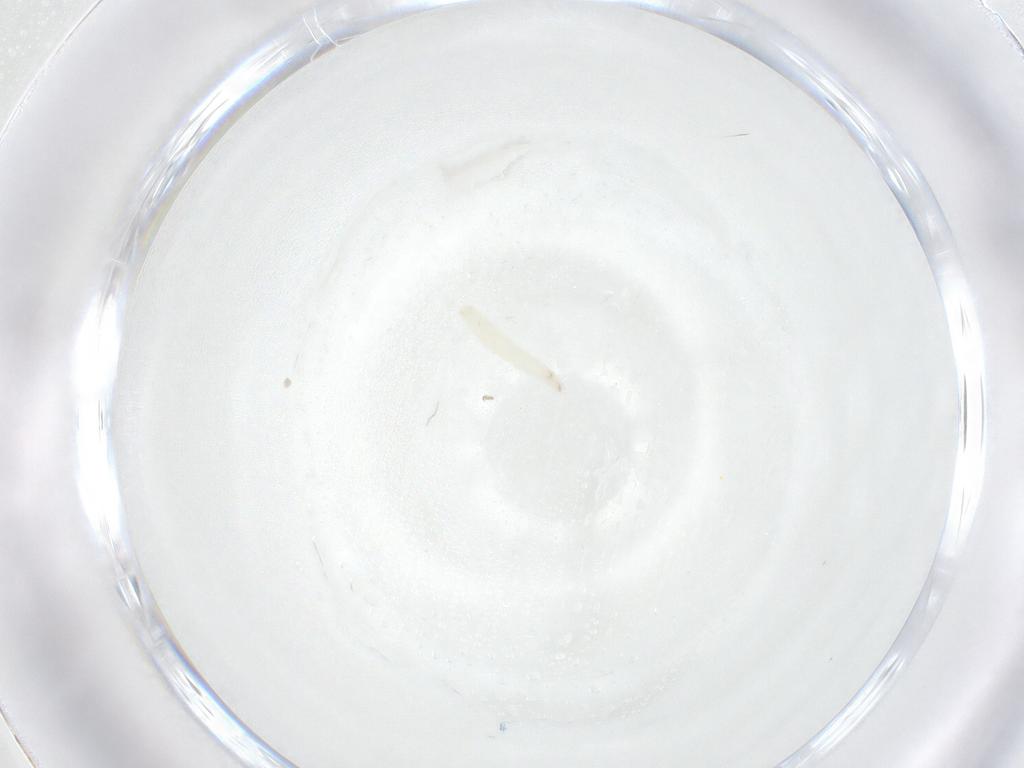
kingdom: Animalia
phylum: Arthropoda
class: Insecta
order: Diptera
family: Sarcophagidae
